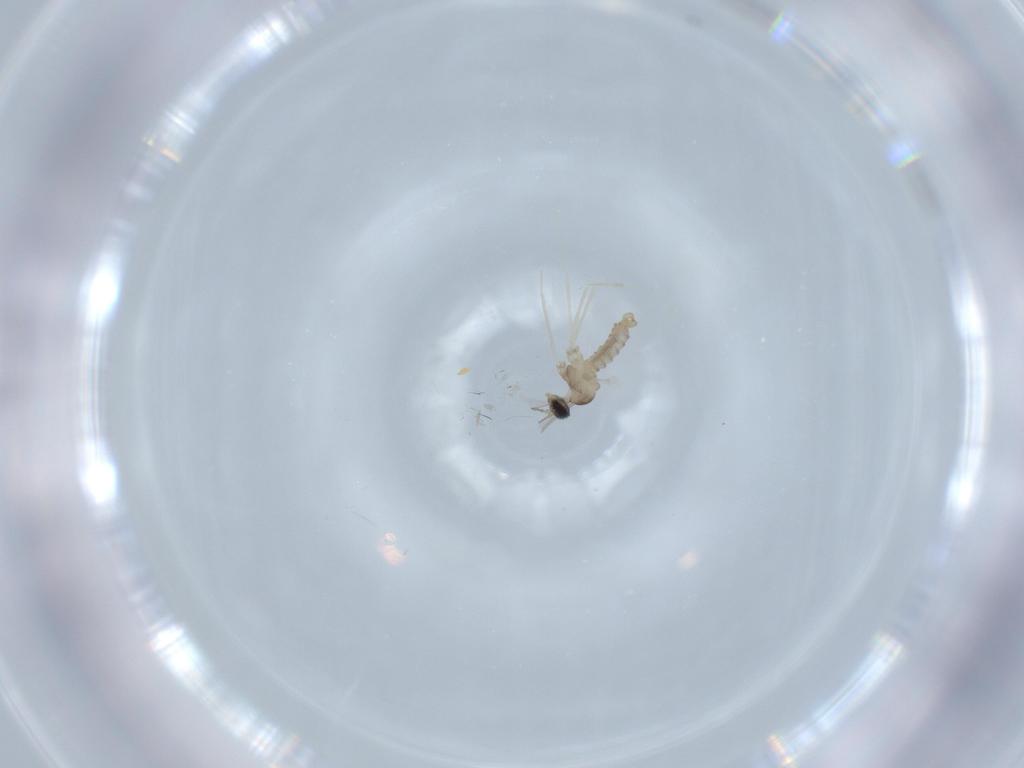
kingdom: Animalia
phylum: Arthropoda
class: Insecta
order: Diptera
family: Cecidomyiidae
